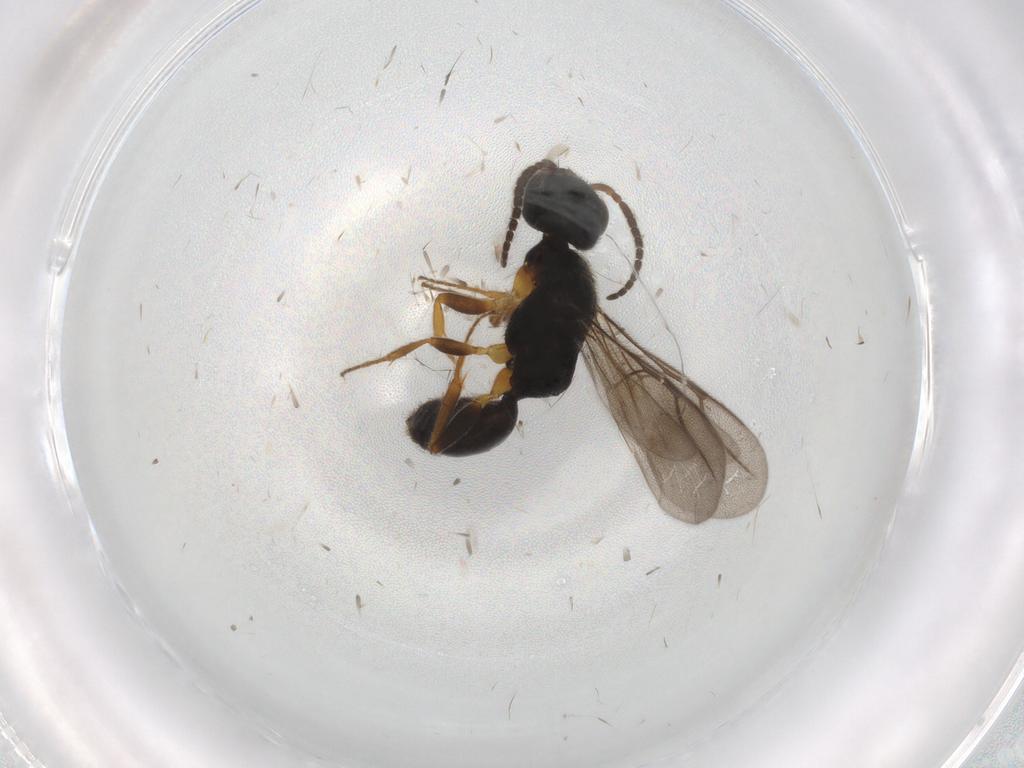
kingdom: Animalia
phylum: Arthropoda
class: Insecta
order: Hymenoptera
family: Bethylidae
